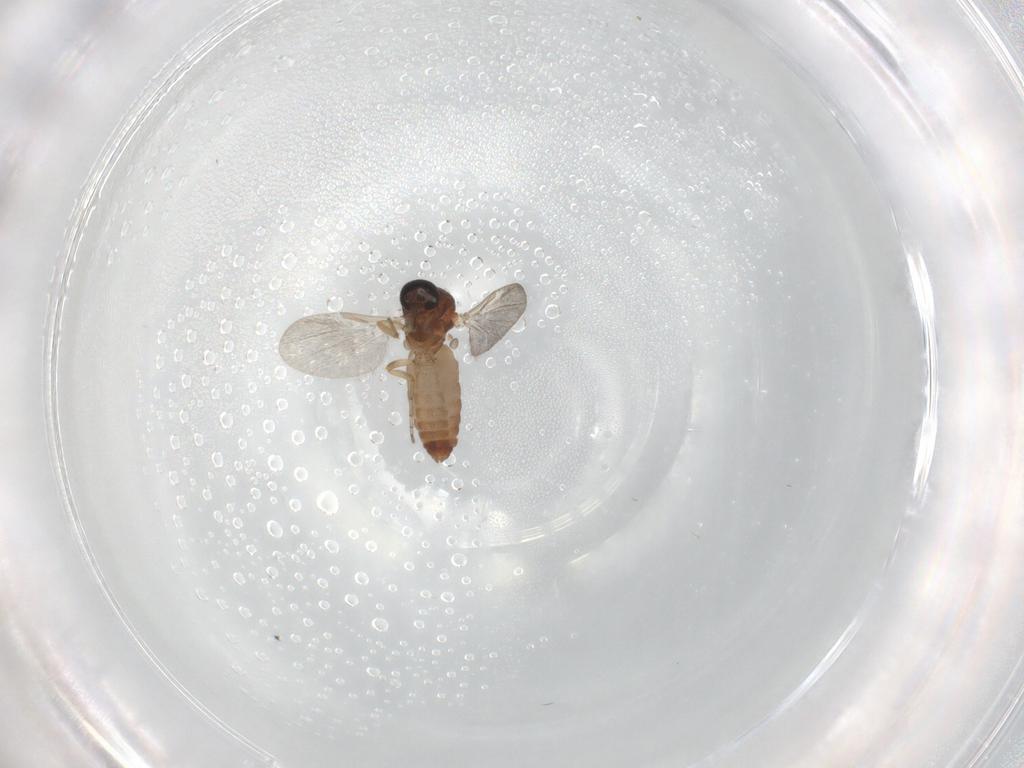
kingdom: Animalia
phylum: Arthropoda
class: Insecta
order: Diptera
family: Ceratopogonidae
